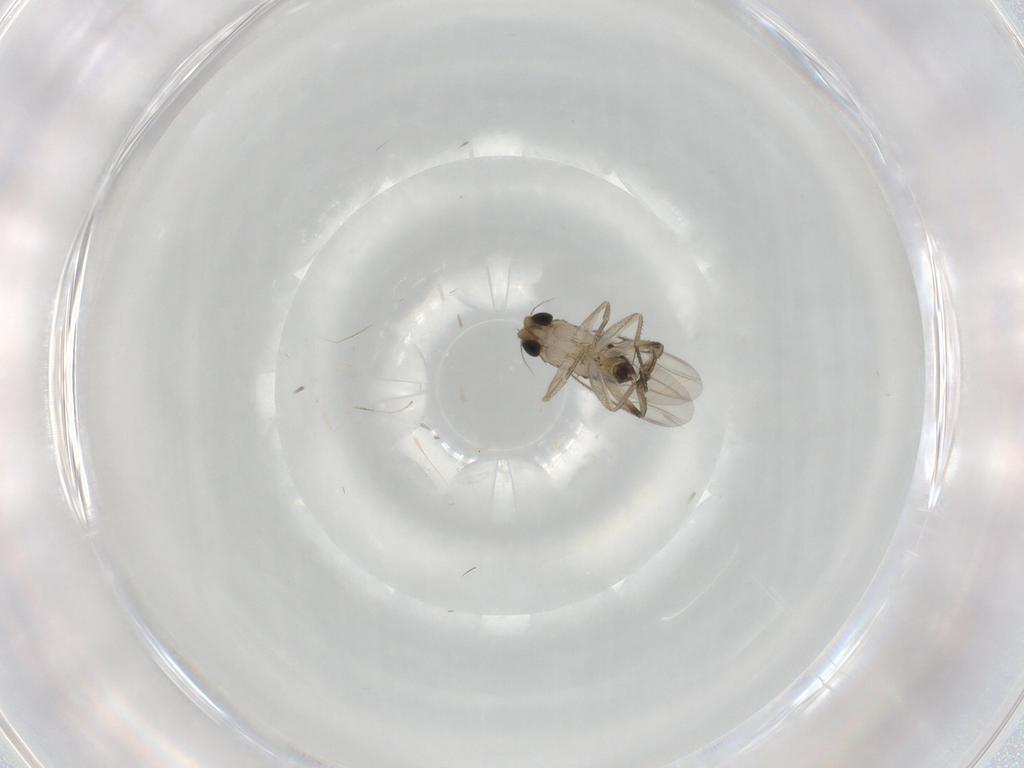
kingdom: Animalia
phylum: Arthropoda
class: Insecta
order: Diptera
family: Phoridae
